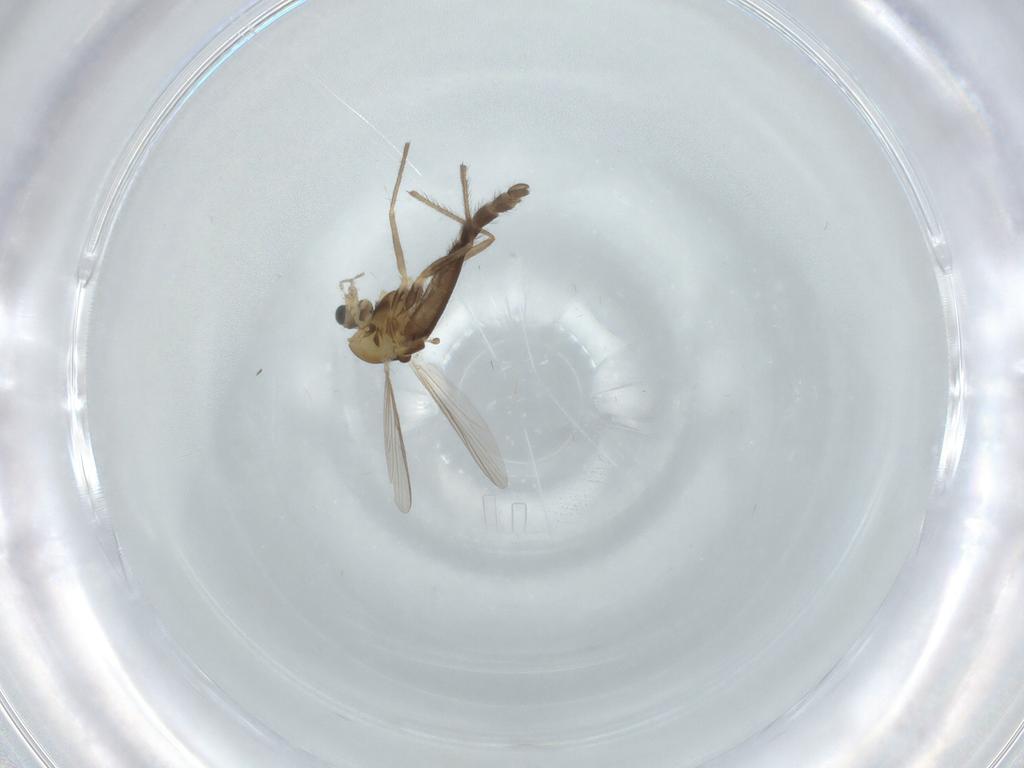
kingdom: Animalia
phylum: Arthropoda
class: Insecta
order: Diptera
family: Chironomidae
